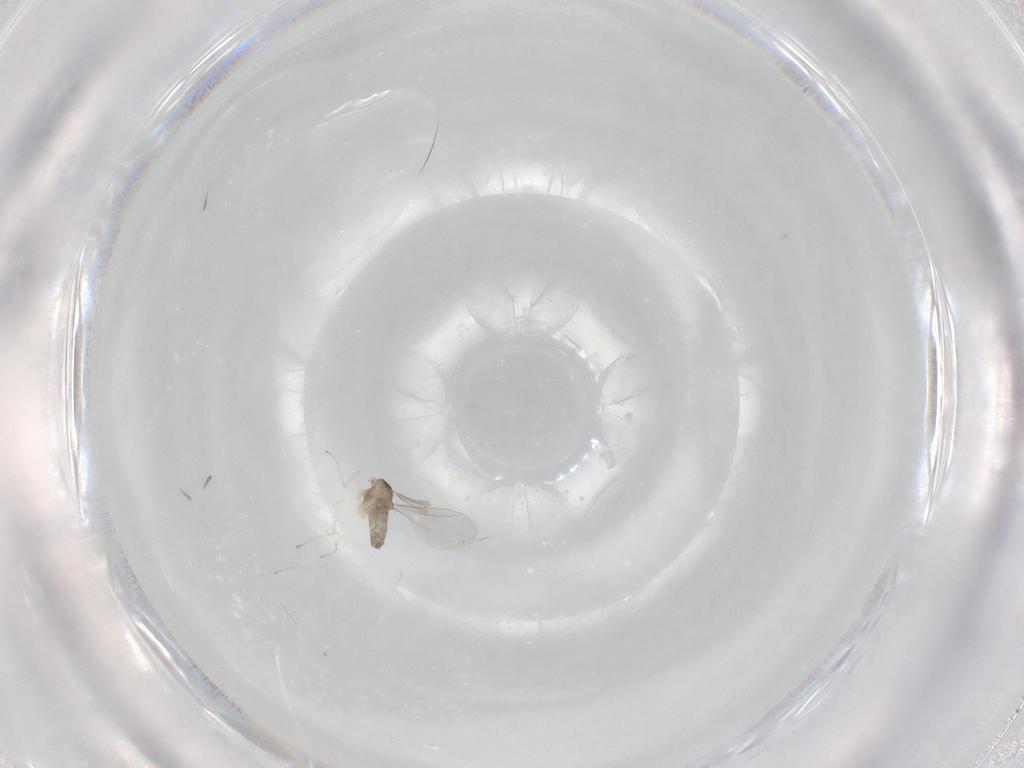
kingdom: Animalia
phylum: Arthropoda
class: Insecta
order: Diptera
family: Cecidomyiidae
